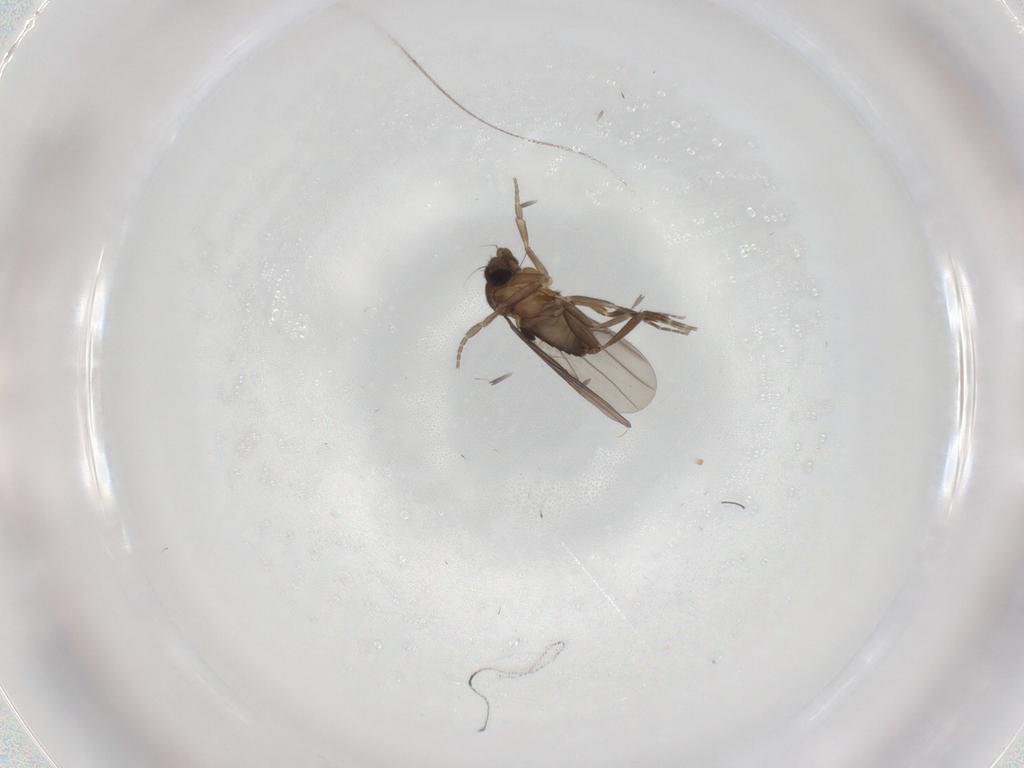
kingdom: Animalia
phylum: Arthropoda
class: Insecta
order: Diptera
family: Phoridae
